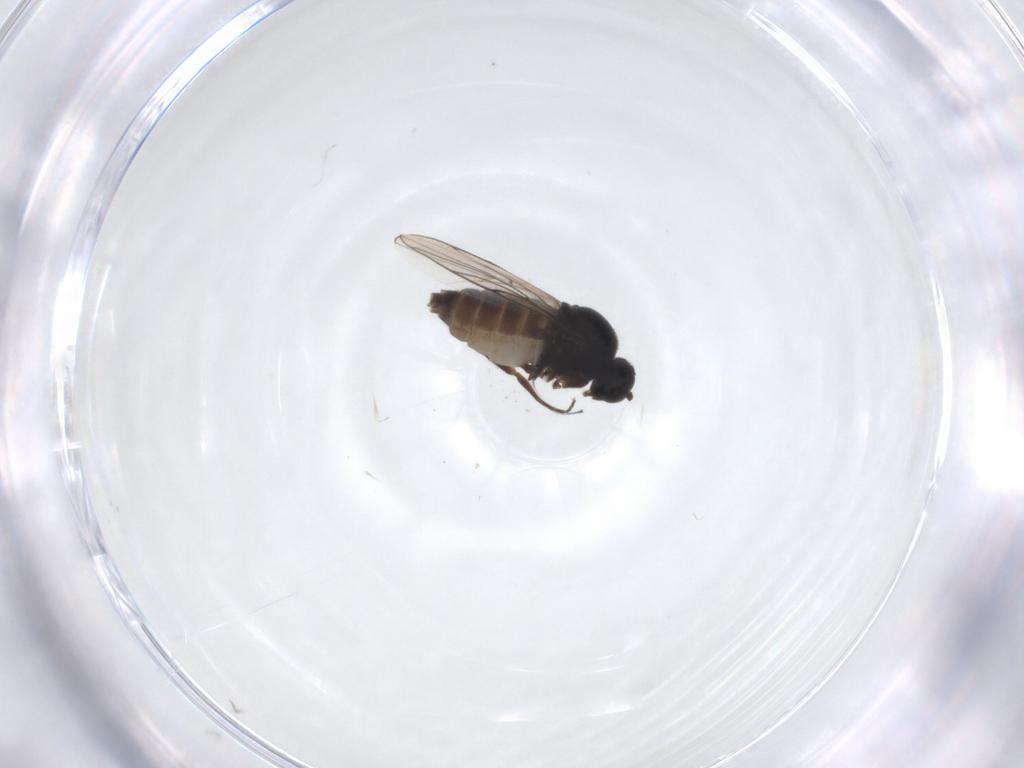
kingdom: Animalia
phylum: Arthropoda
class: Insecta
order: Diptera
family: Hybotidae
